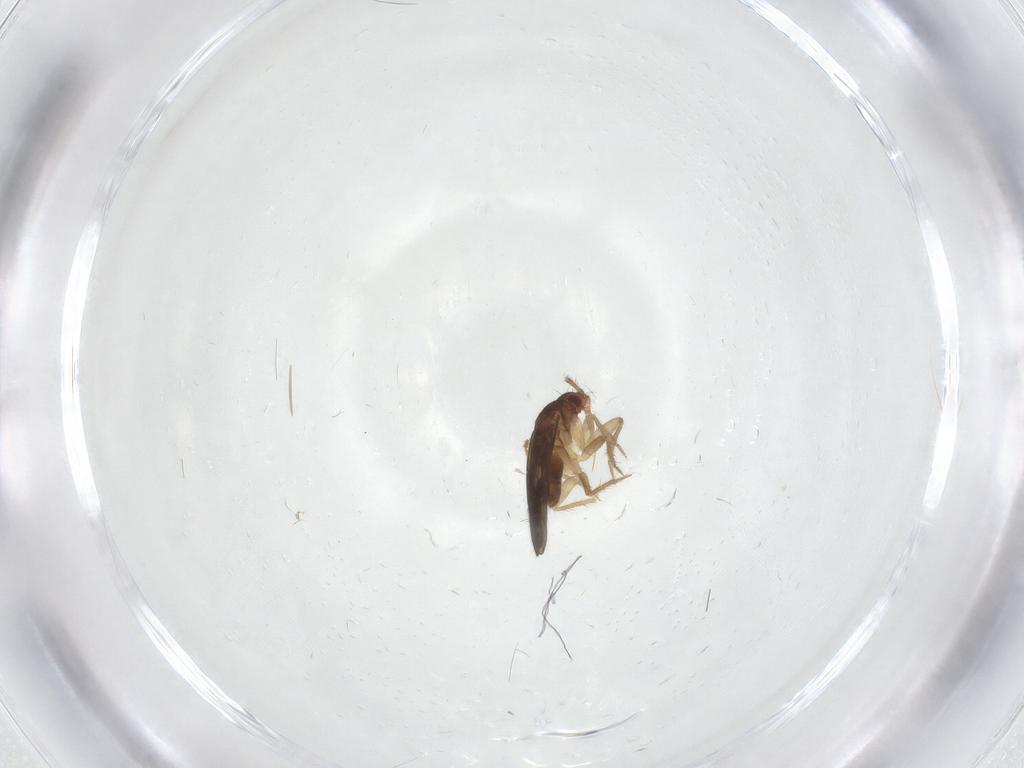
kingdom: Animalia
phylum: Arthropoda
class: Insecta
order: Hemiptera
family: Ceratocombidae
